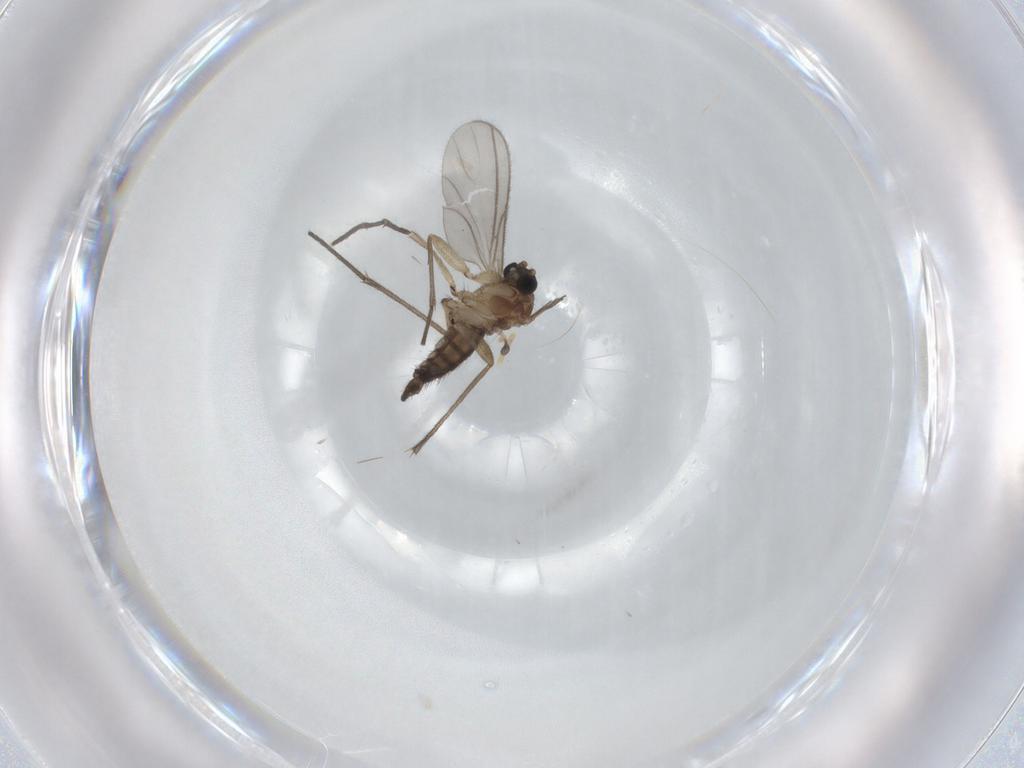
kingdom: Animalia
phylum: Arthropoda
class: Insecta
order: Diptera
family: Sciaridae
